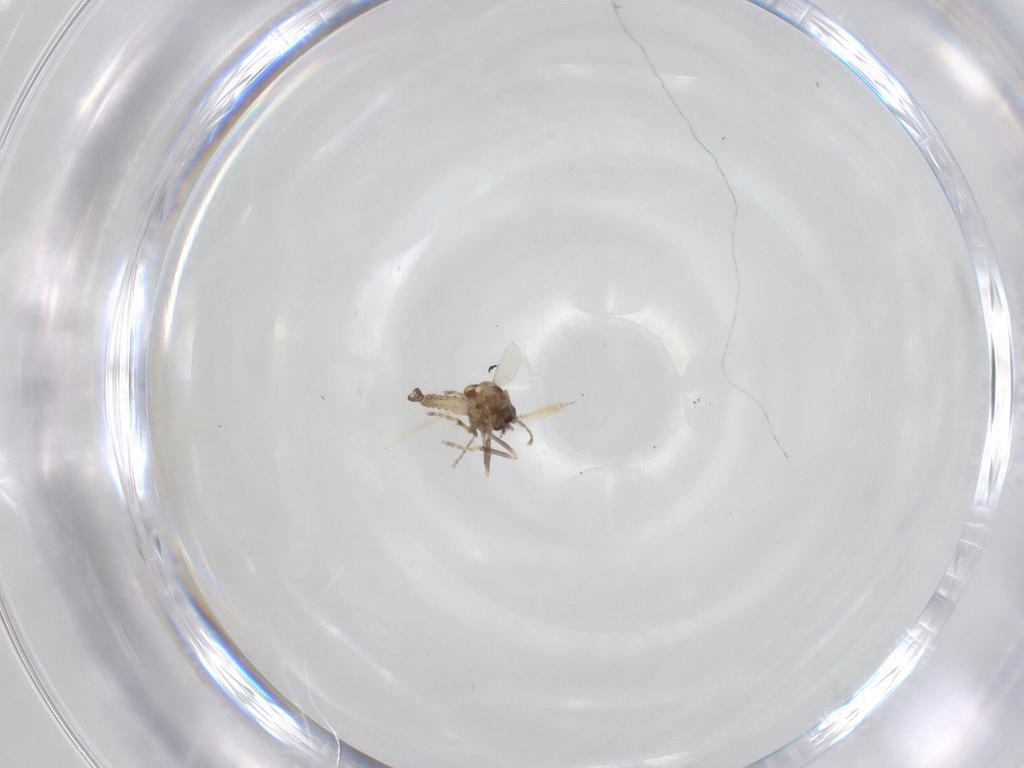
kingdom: Animalia
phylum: Arthropoda
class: Insecta
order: Diptera
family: Ceratopogonidae
